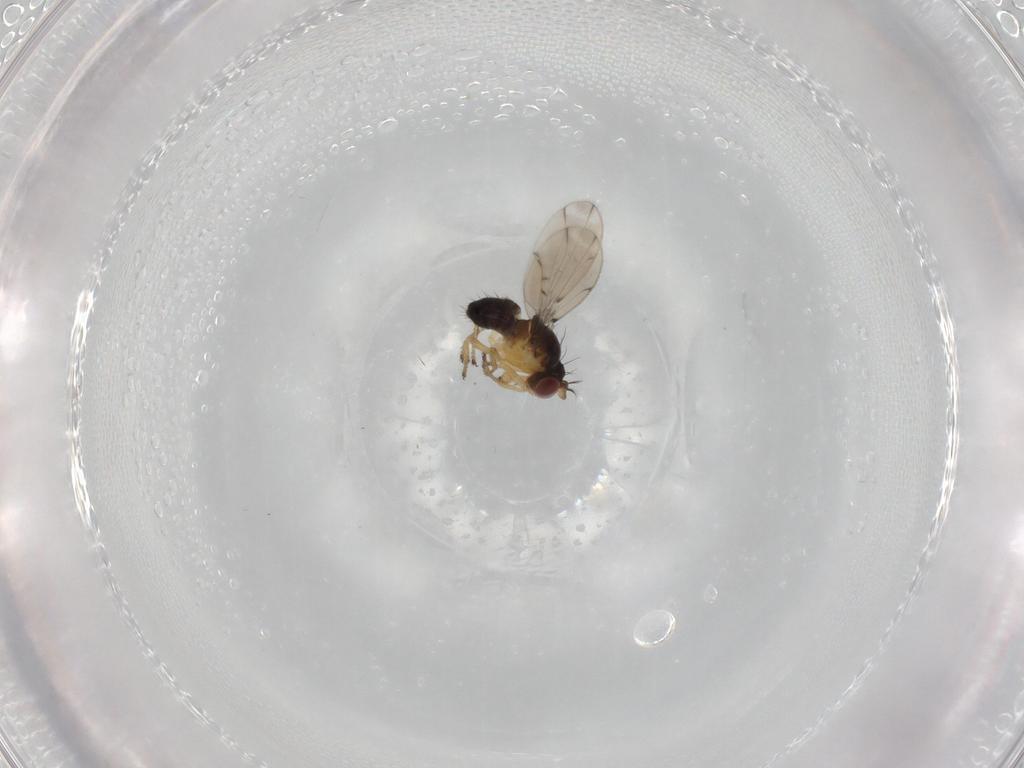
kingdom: Animalia
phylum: Arthropoda
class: Insecta
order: Diptera
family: Ephydridae
